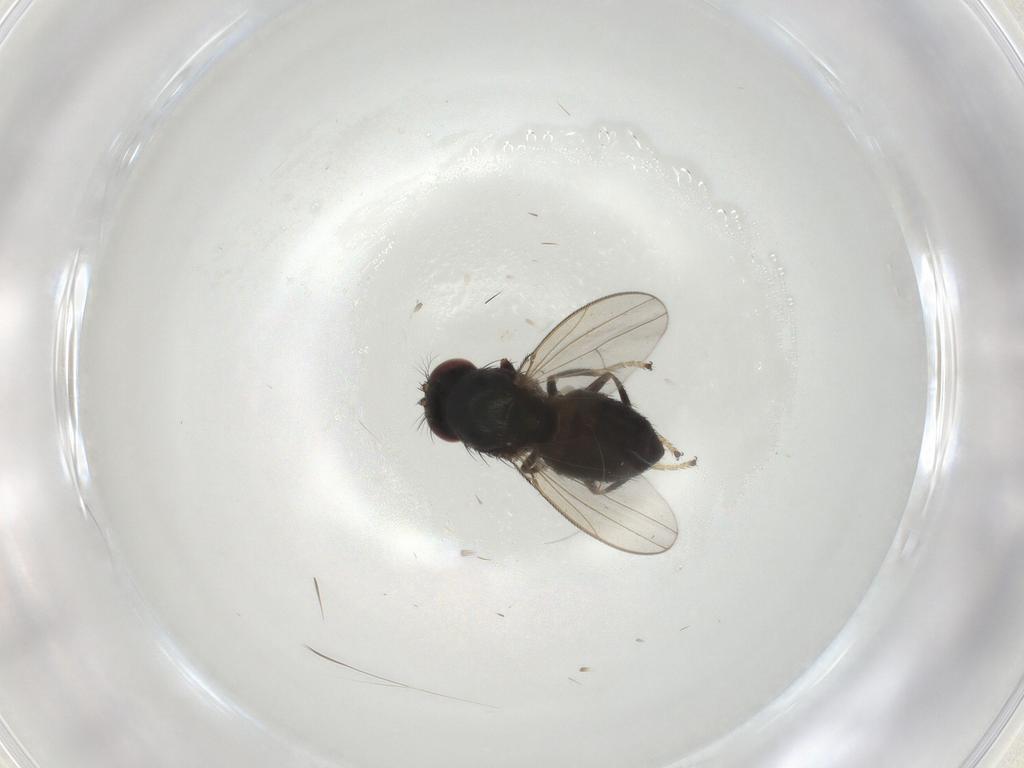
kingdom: Animalia
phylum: Arthropoda
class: Insecta
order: Diptera
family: Ephydridae
